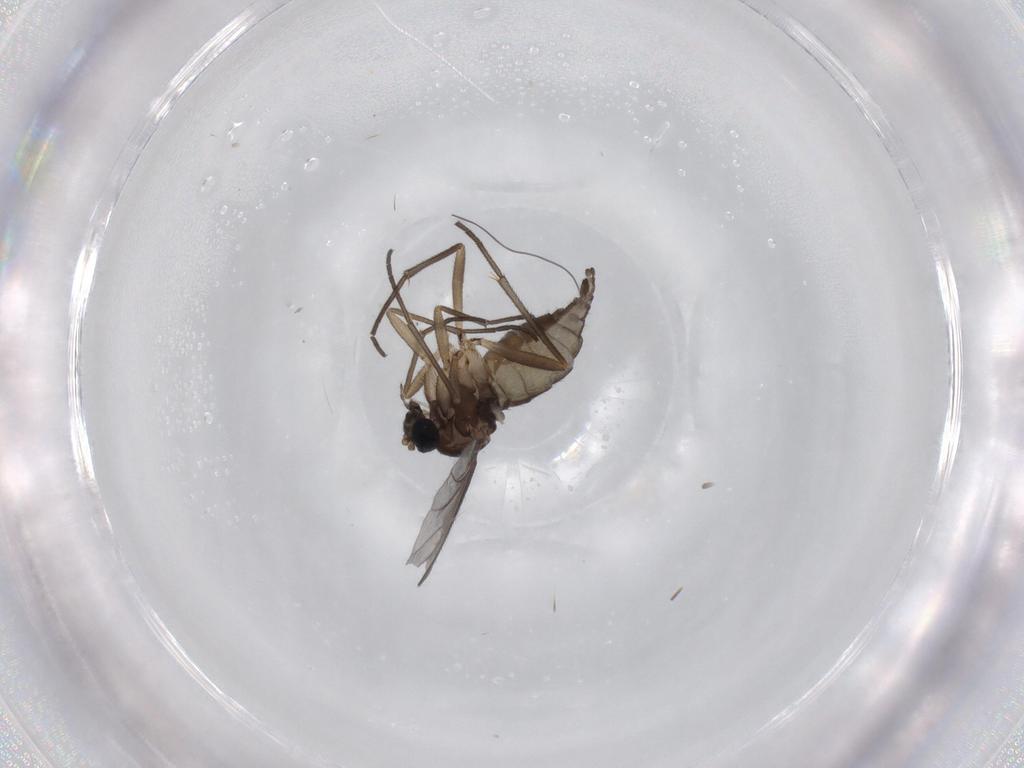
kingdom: Animalia
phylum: Arthropoda
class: Insecta
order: Diptera
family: Sciaridae
